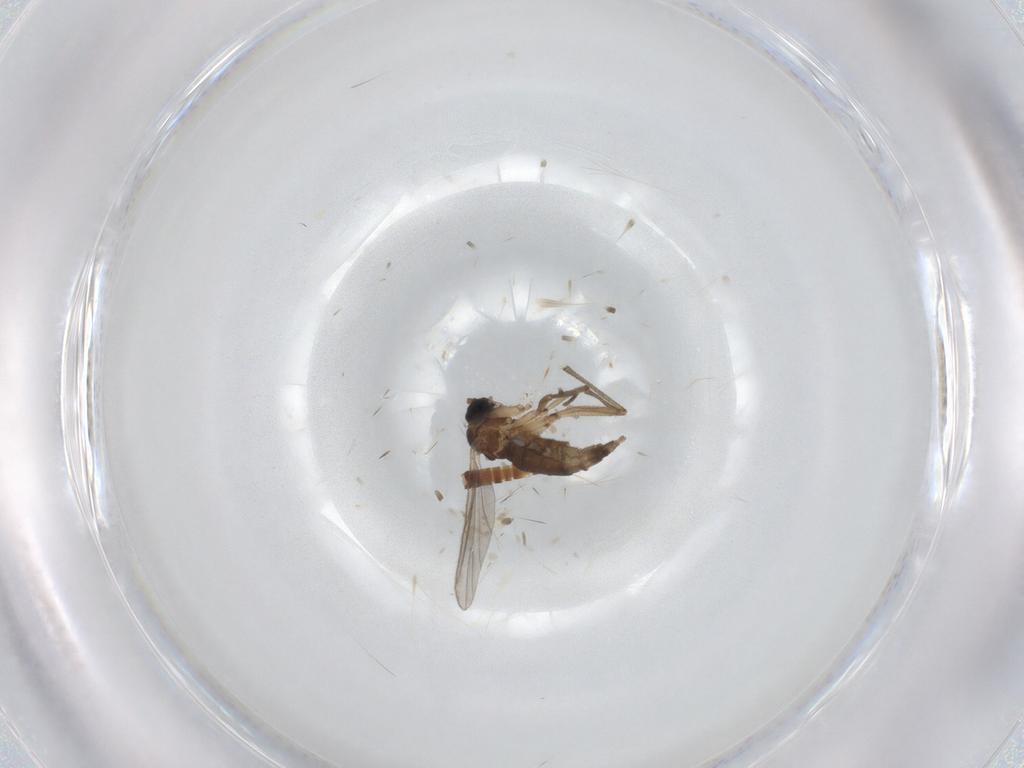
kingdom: Animalia
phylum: Arthropoda
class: Insecta
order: Diptera
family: Sciaridae
